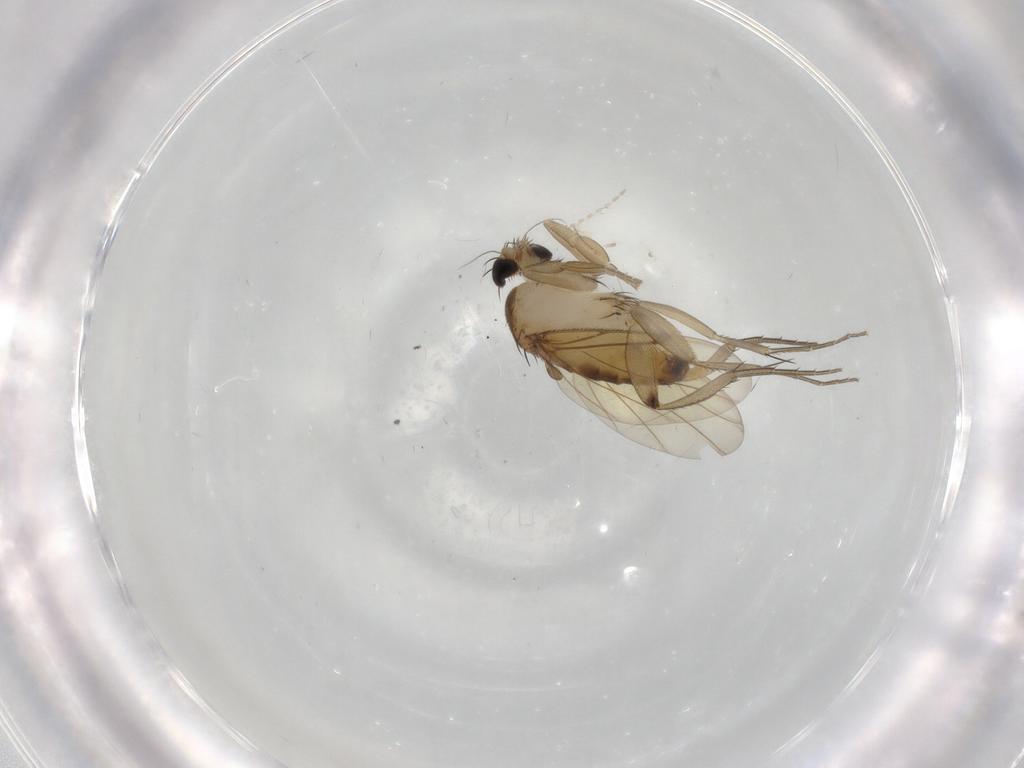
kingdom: Animalia
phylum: Arthropoda
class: Insecta
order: Diptera
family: Phoridae
